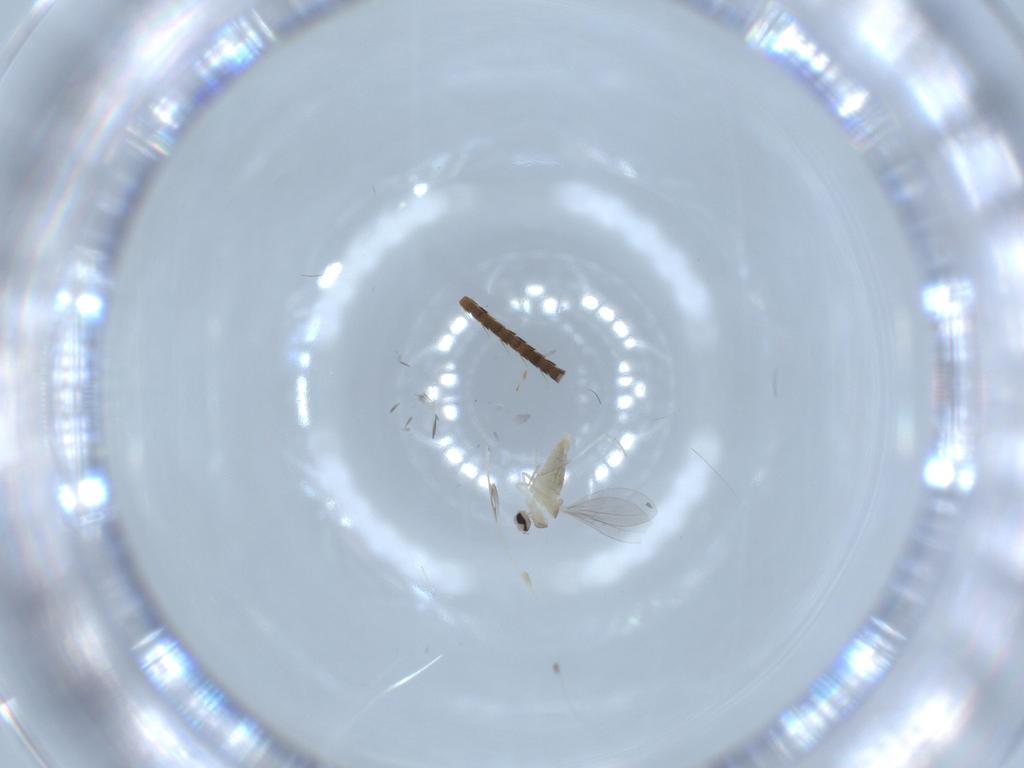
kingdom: Animalia
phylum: Arthropoda
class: Insecta
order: Diptera
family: Cecidomyiidae
